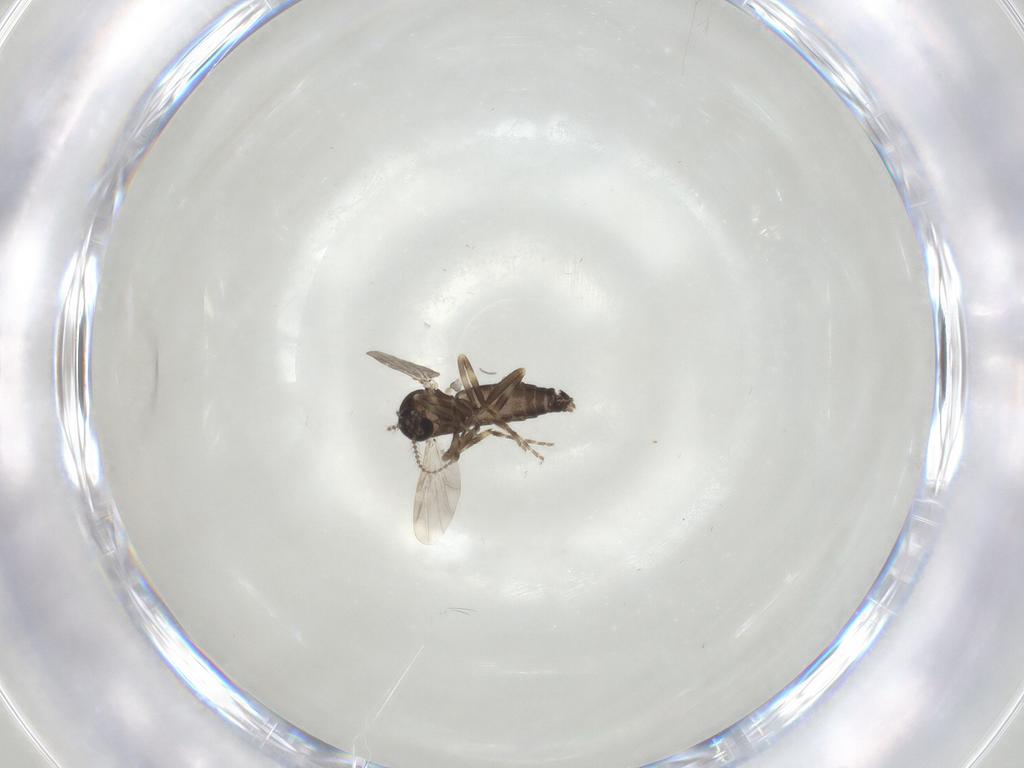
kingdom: Animalia
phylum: Arthropoda
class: Insecta
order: Diptera
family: Ceratopogonidae
